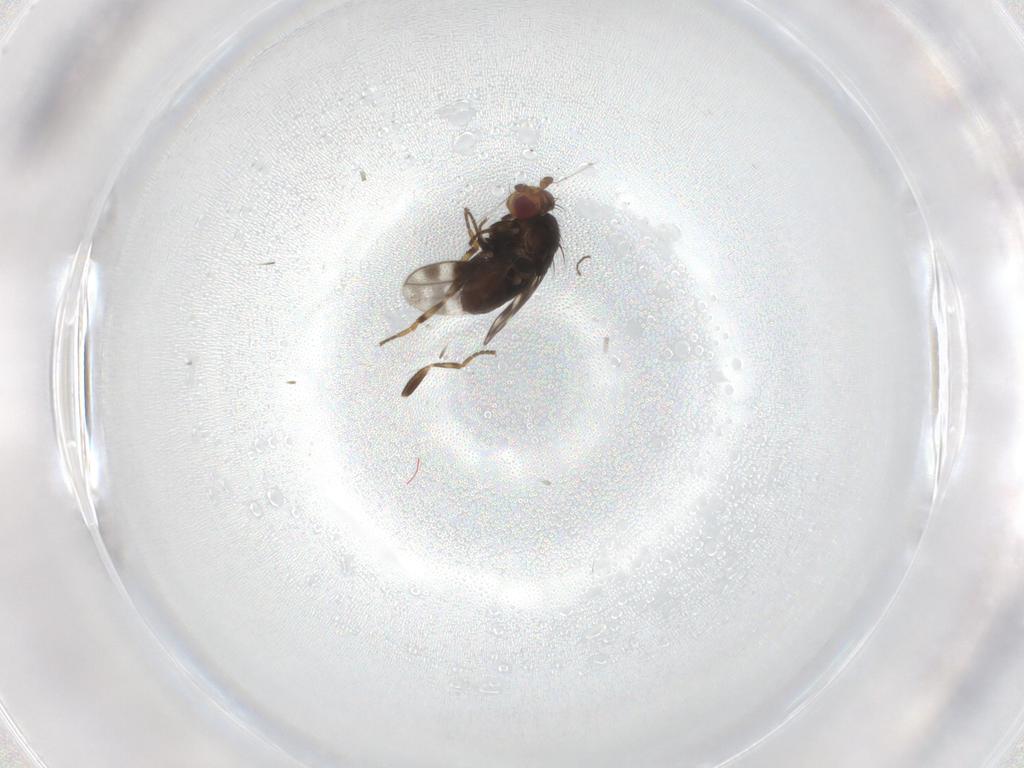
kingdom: Animalia
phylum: Arthropoda
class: Insecta
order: Diptera
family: Sphaeroceridae
